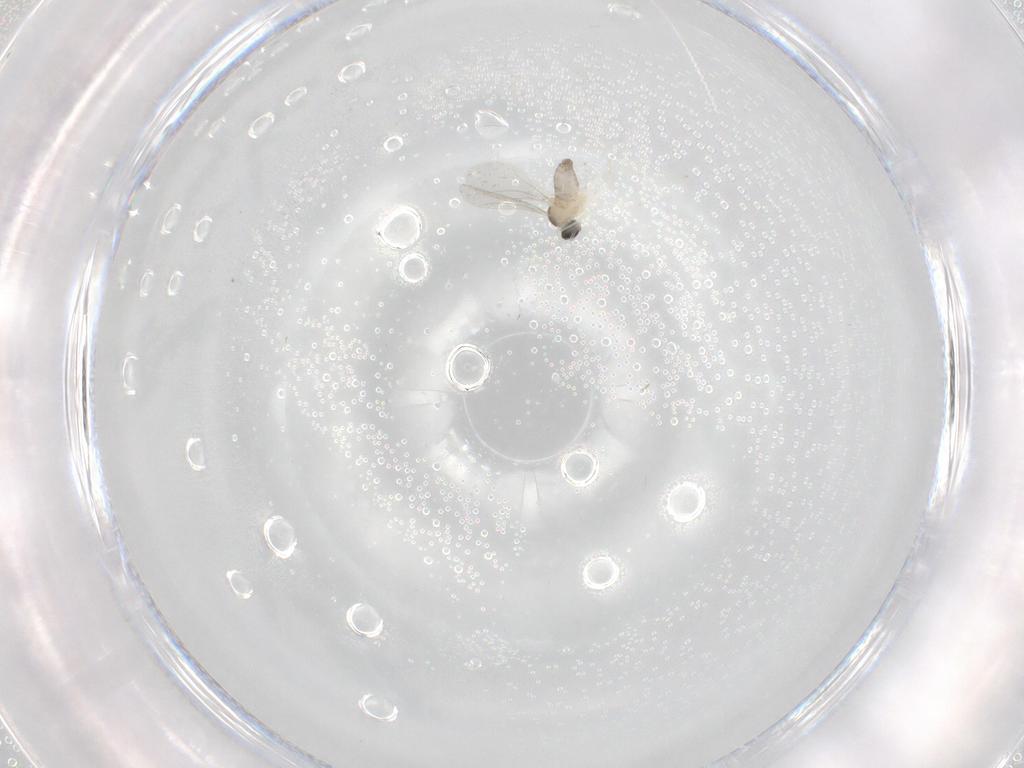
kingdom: Animalia
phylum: Arthropoda
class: Insecta
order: Diptera
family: Cecidomyiidae
